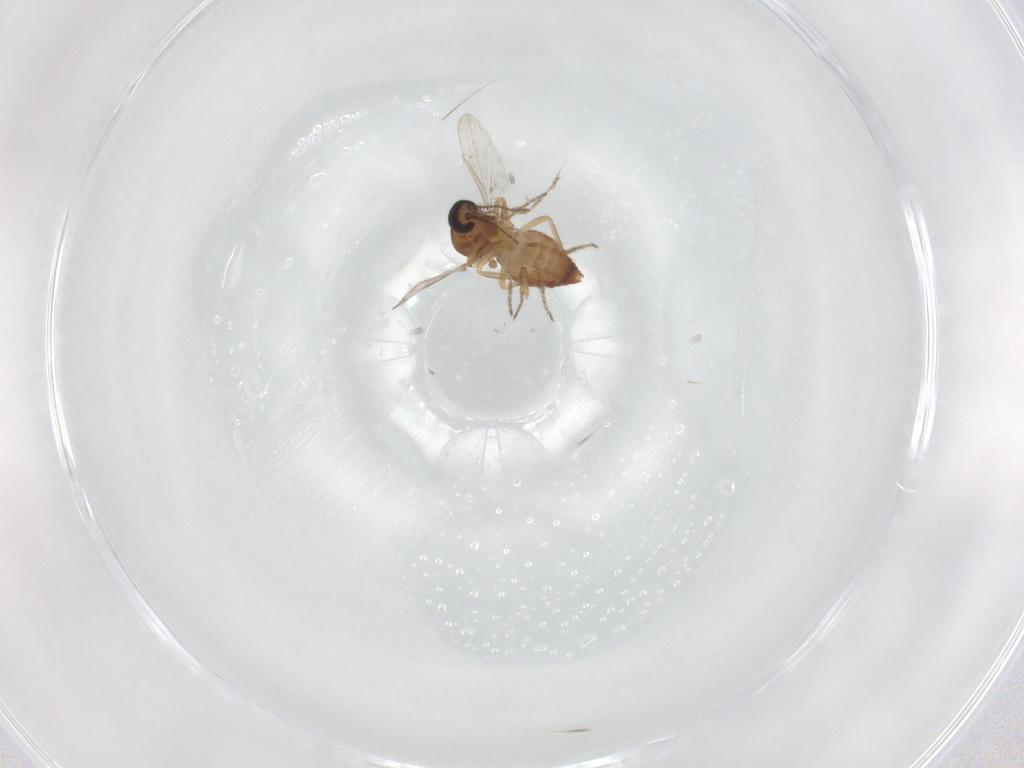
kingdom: Animalia
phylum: Arthropoda
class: Insecta
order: Diptera
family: Ceratopogonidae
